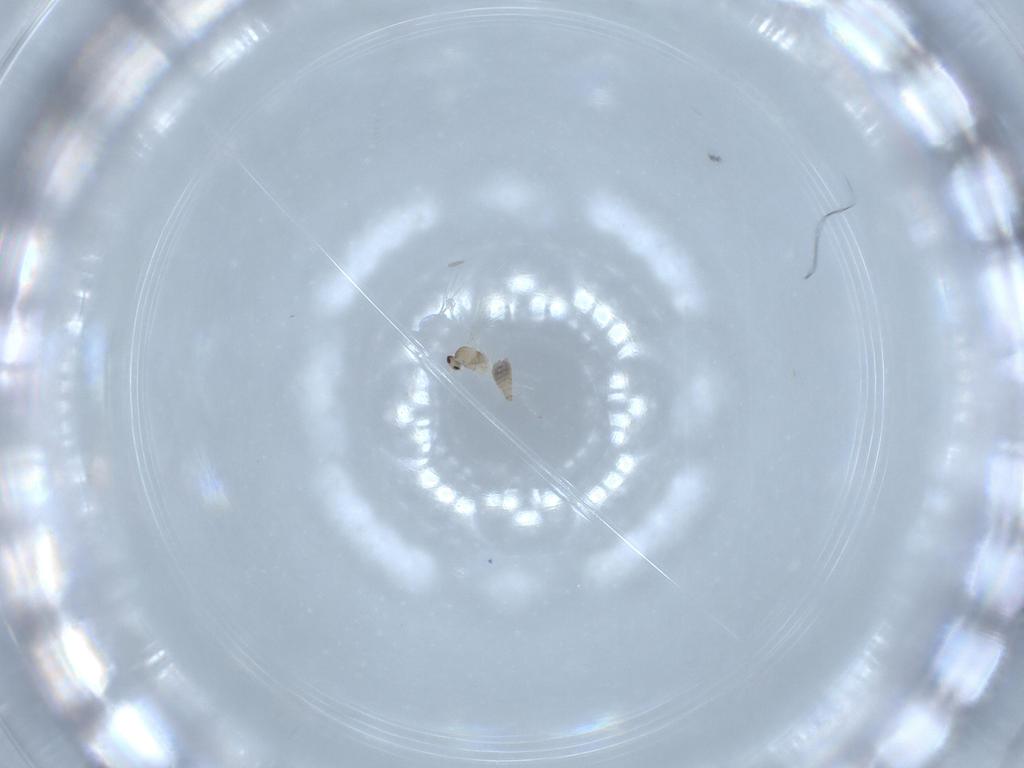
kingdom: Animalia
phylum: Arthropoda
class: Insecta
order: Diptera
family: Cecidomyiidae
